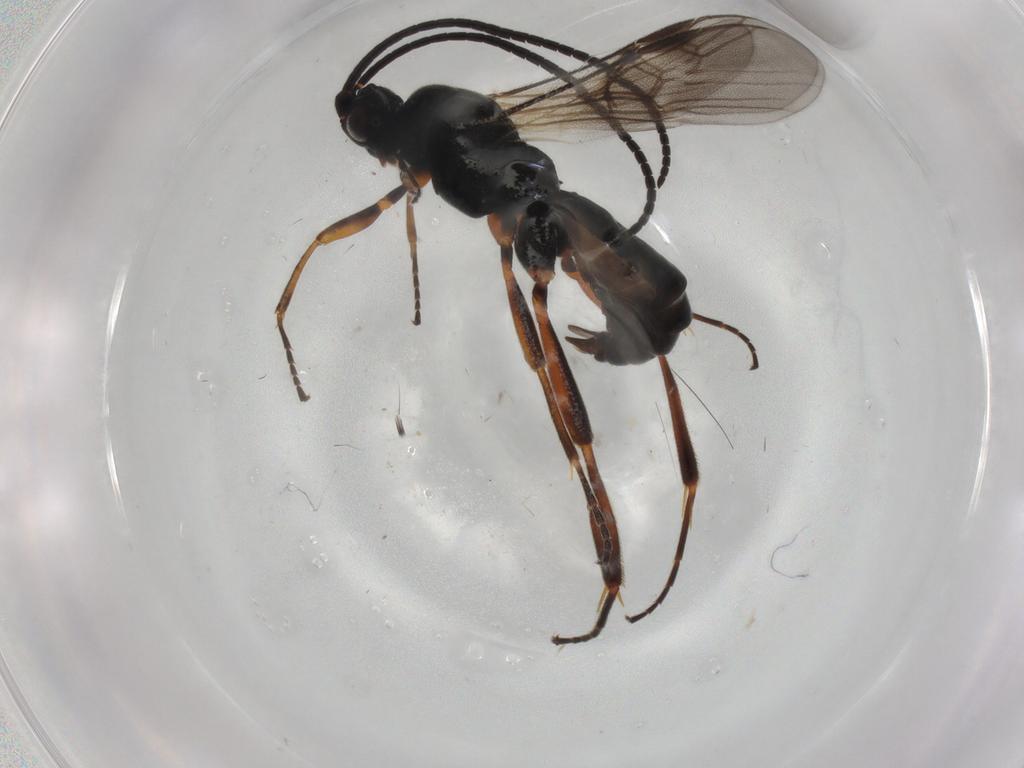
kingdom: Animalia
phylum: Arthropoda
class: Insecta
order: Hymenoptera
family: Braconidae
